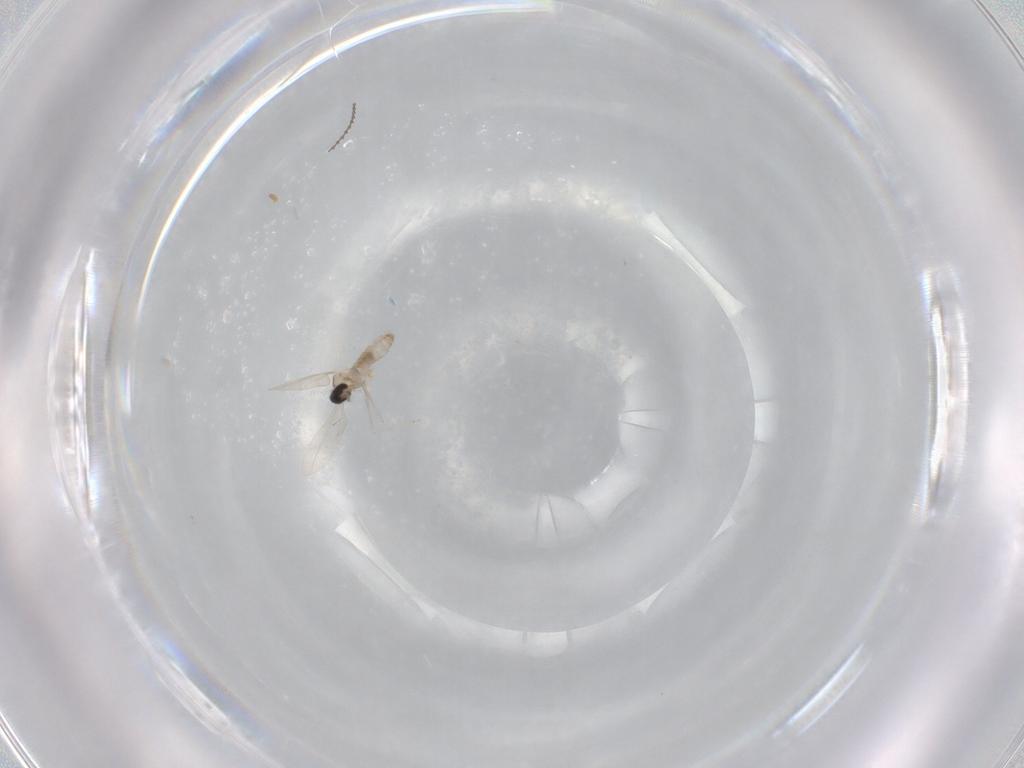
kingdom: Animalia
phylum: Arthropoda
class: Insecta
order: Diptera
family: Cecidomyiidae
